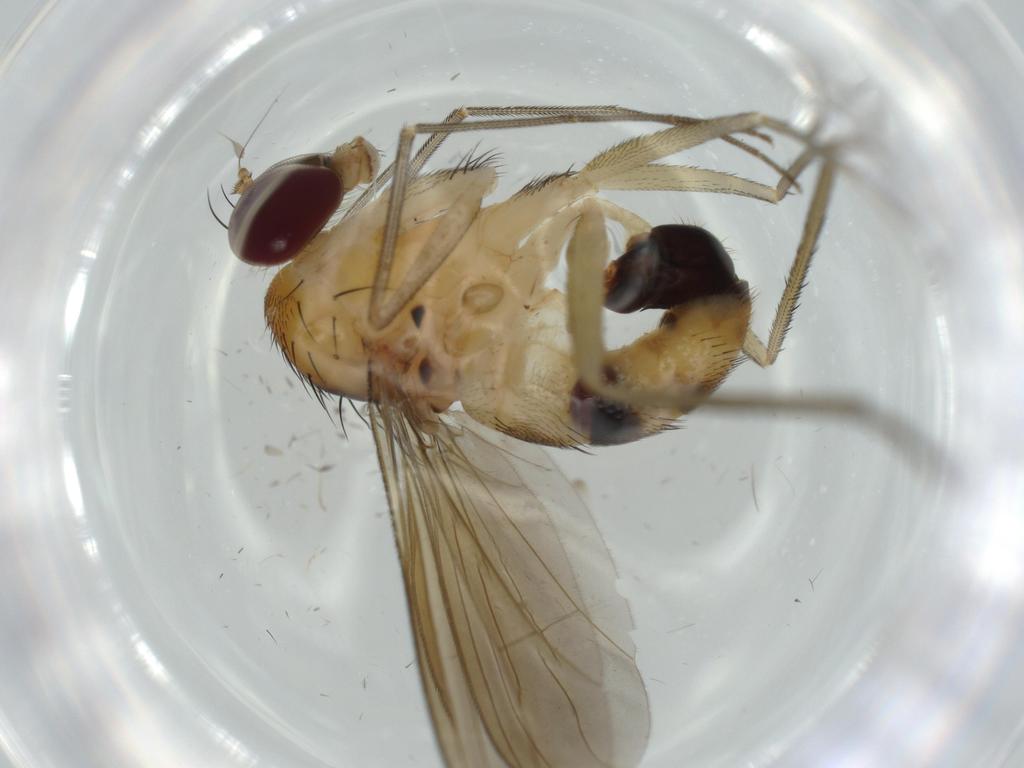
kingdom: Animalia
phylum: Arthropoda
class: Insecta
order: Diptera
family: Dolichopodidae
